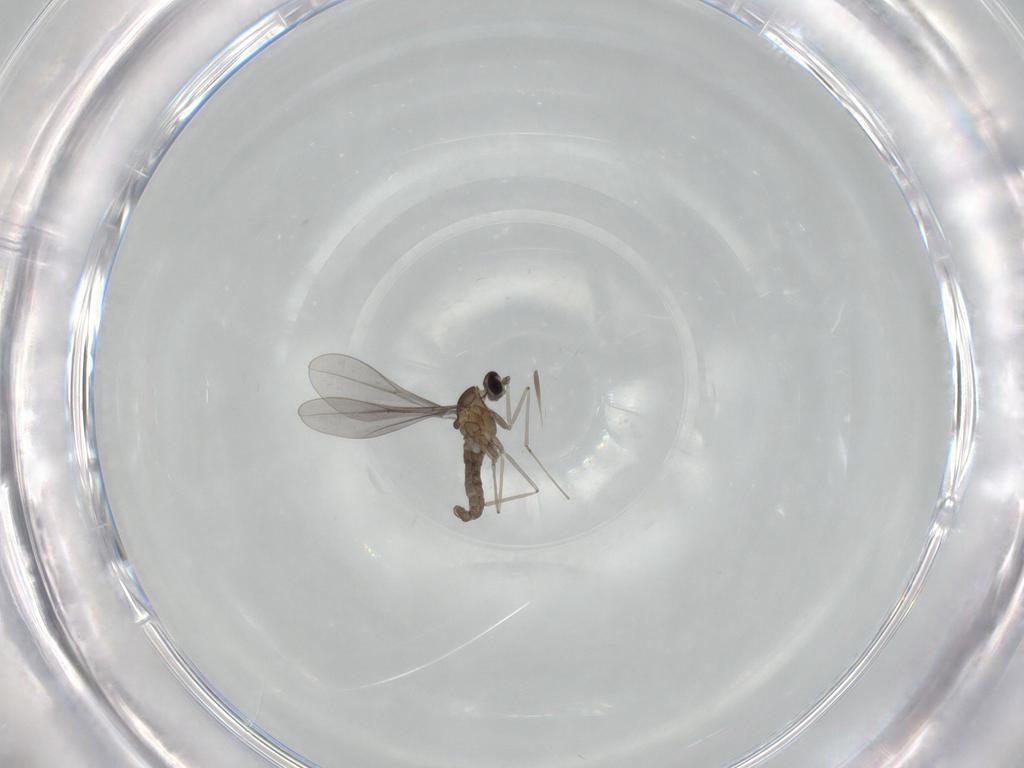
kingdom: Animalia
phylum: Arthropoda
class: Insecta
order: Diptera
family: Cecidomyiidae
